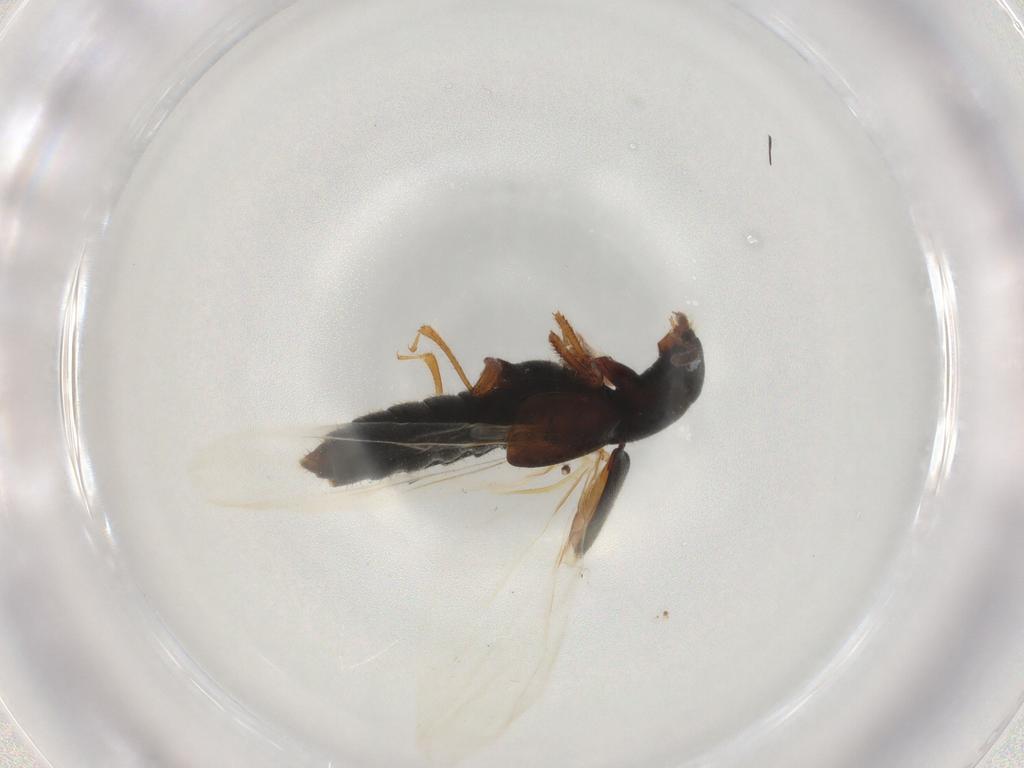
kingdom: Animalia
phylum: Arthropoda
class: Insecta
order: Coleoptera
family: Staphylinidae
